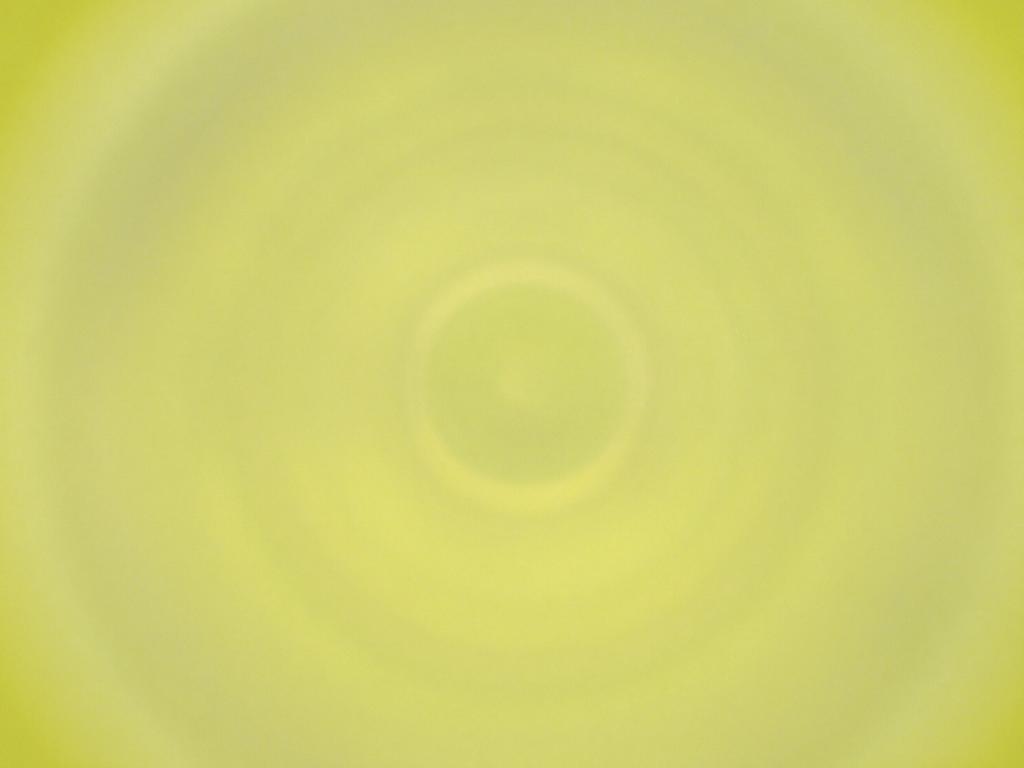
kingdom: Animalia
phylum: Arthropoda
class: Insecta
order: Diptera
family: Cecidomyiidae
